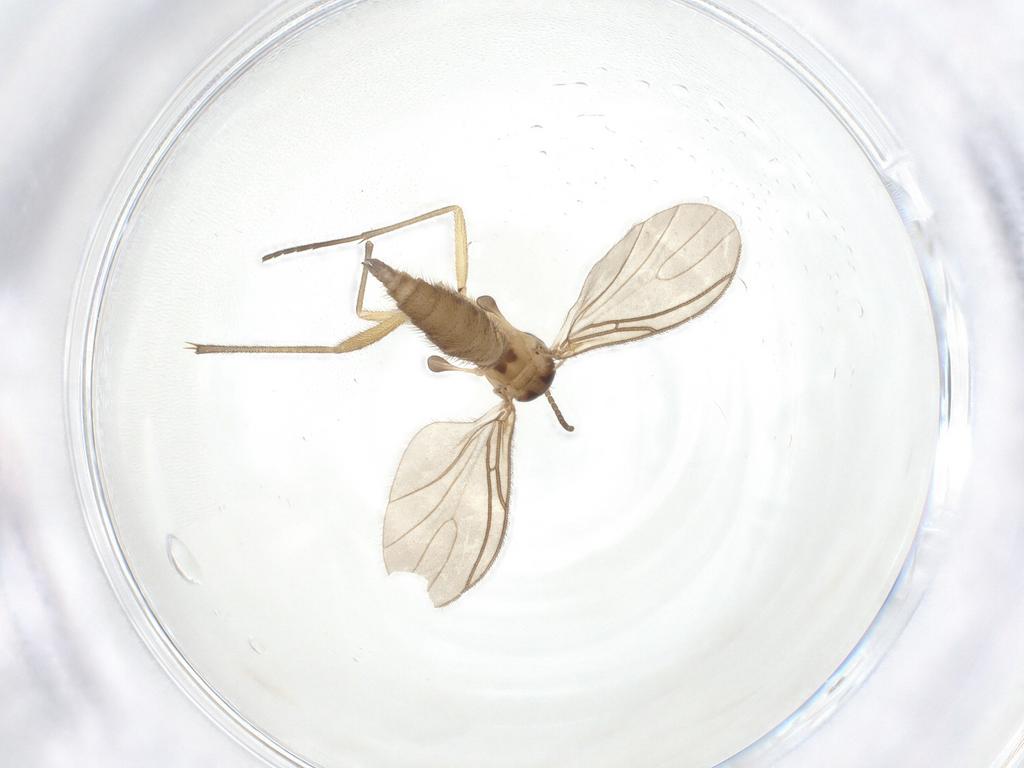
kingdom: Animalia
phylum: Arthropoda
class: Insecta
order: Diptera
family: Sciaridae
